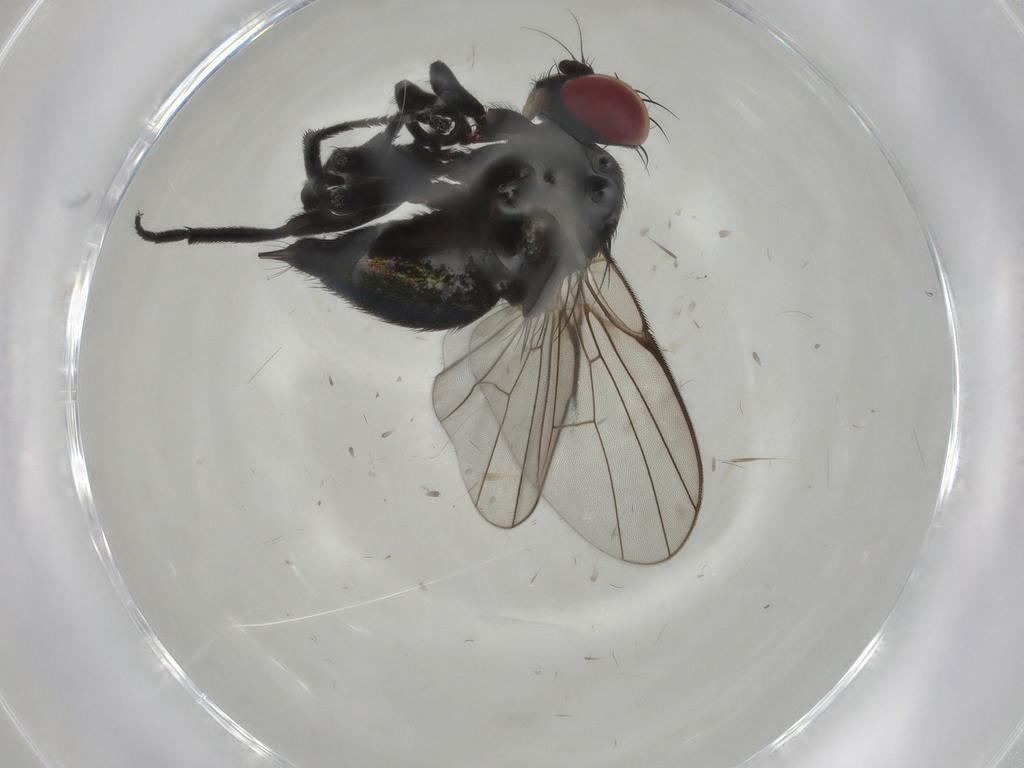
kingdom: Animalia
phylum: Arthropoda
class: Insecta
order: Diptera
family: Agromyzidae
